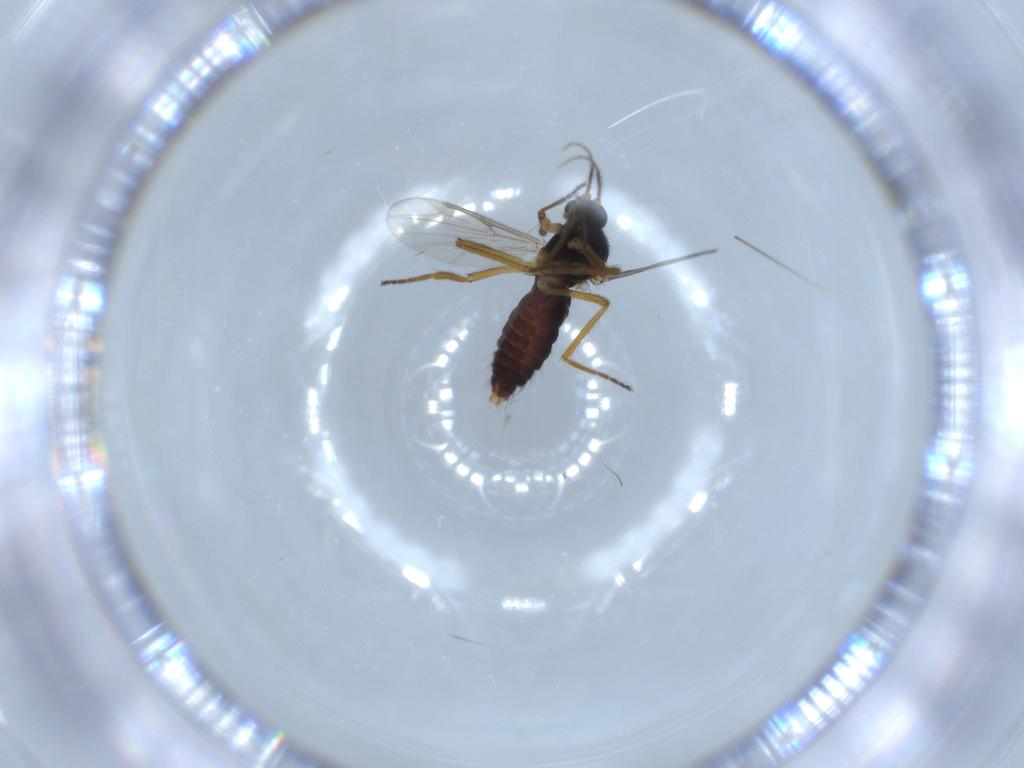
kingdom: Animalia
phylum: Arthropoda
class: Insecta
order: Diptera
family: Ceratopogonidae
